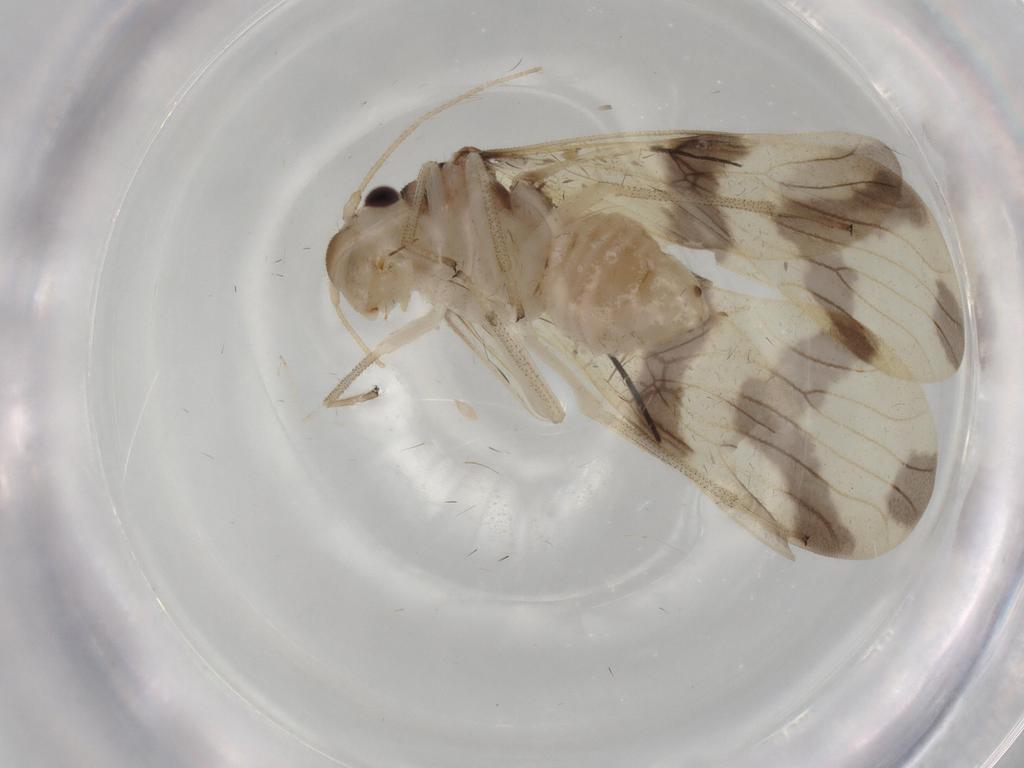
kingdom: Animalia
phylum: Arthropoda
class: Insecta
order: Psocodea
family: Amphipsocidae
